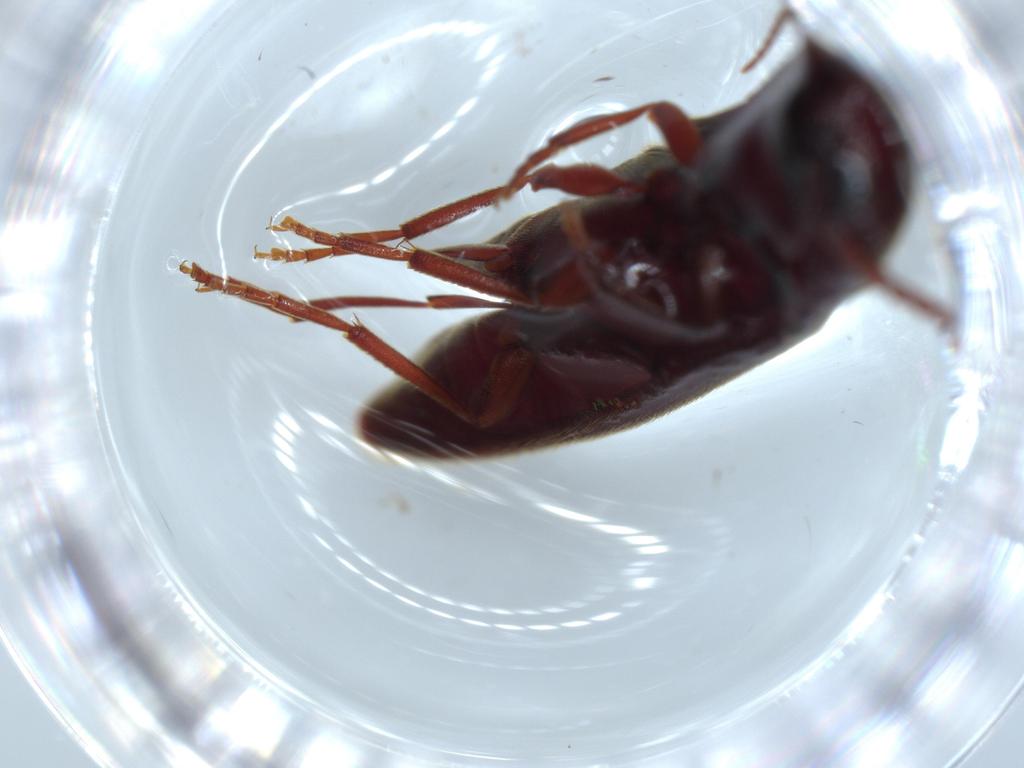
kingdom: Animalia
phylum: Arthropoda
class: Insecta
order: Coleoptera
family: Eucnemidae
